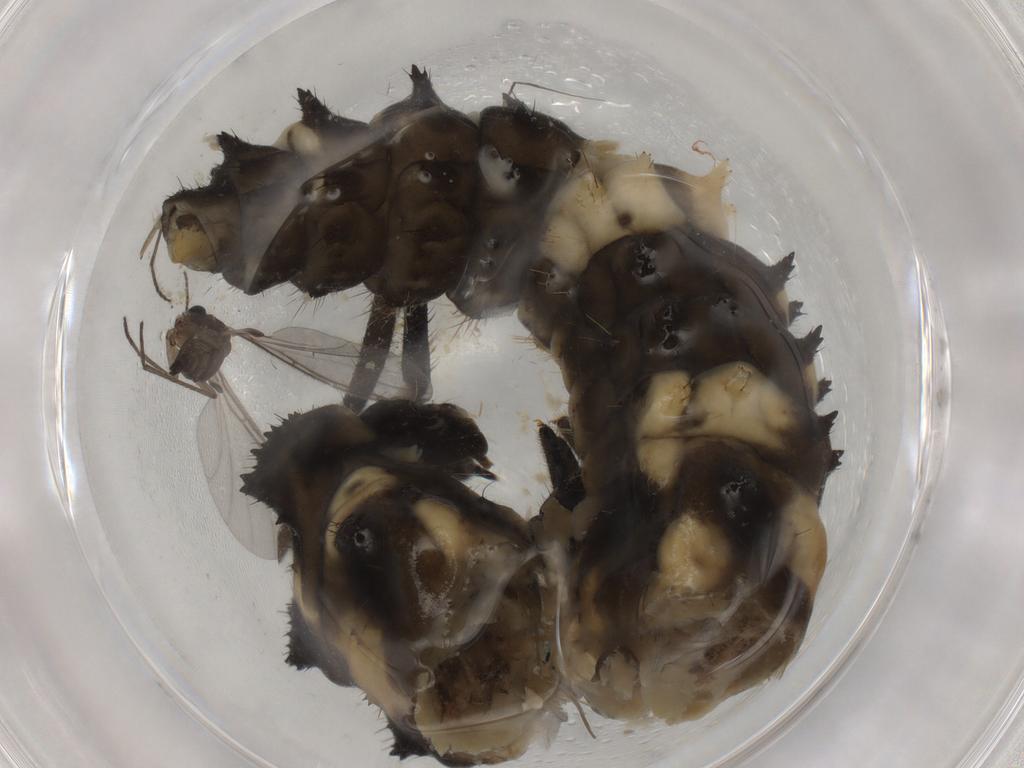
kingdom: Animalia
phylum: Arthropoda
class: Insecta
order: Coleoptera
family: Coccinellidae
